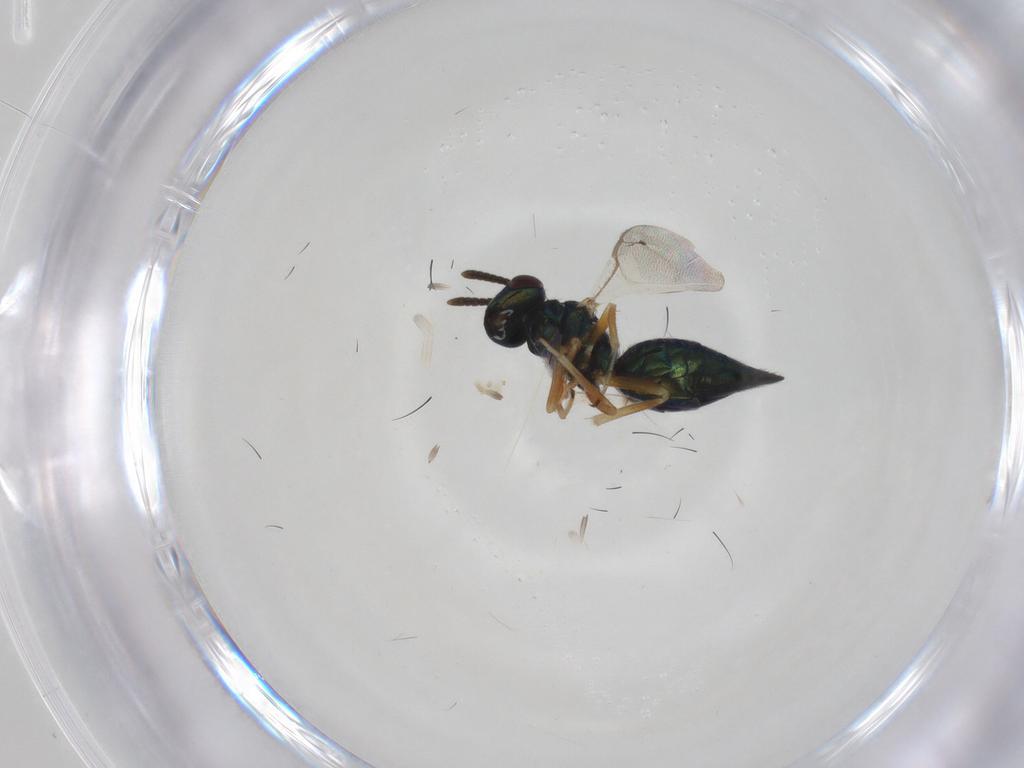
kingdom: Animalia
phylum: Arthropoda
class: Insecta
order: Hymenoptera
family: Pteromalidae
